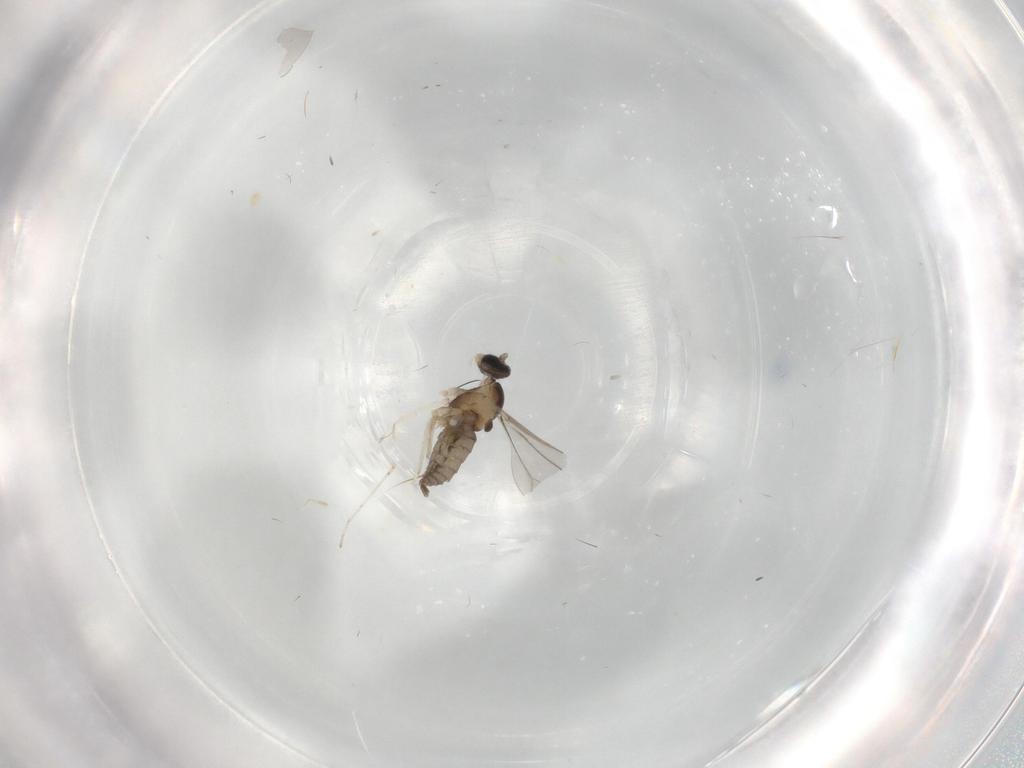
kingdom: Animalia
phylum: Arthropoda
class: Insecta
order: Diptera
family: Cecidomyiidae
